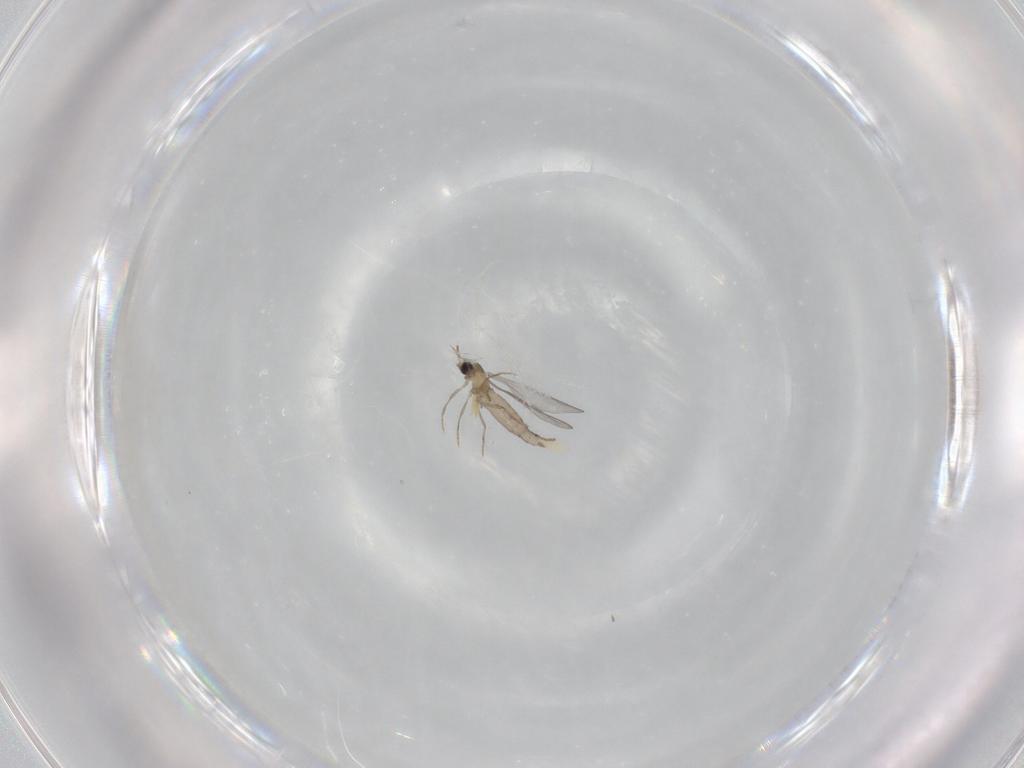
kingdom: Animalia
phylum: Arthropoda
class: Insecta
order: Diptera
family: Cecidomyiidae
